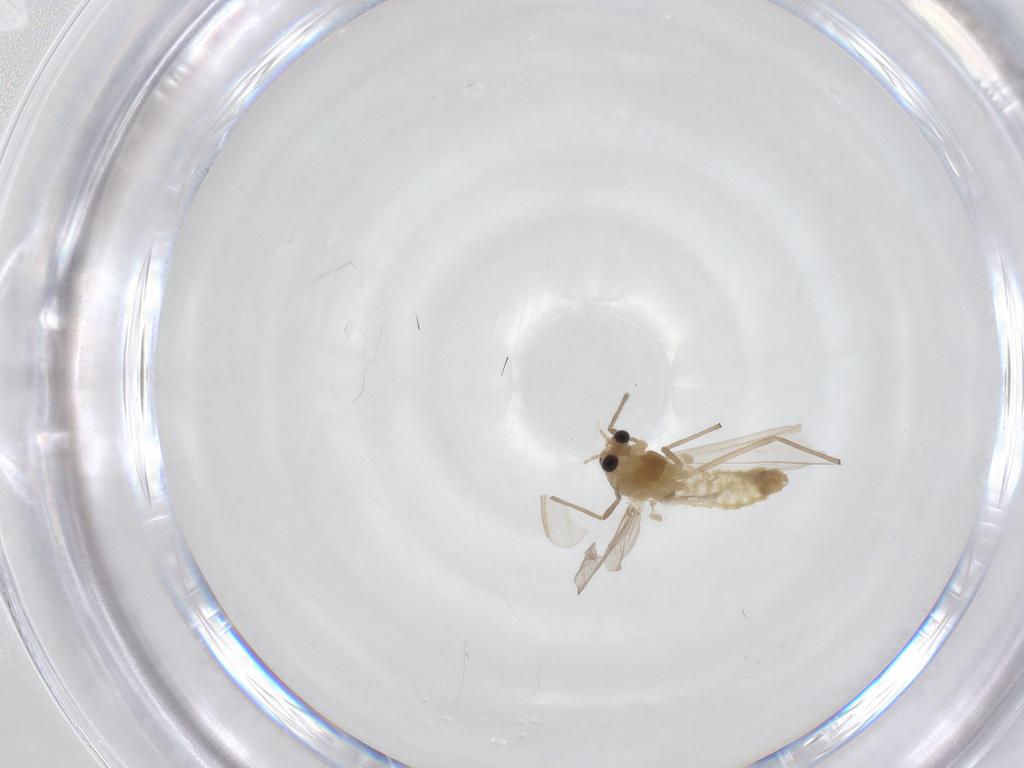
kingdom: Animalia
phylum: Arthropoda
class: Insecta
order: Diptera
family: Chironomidae
